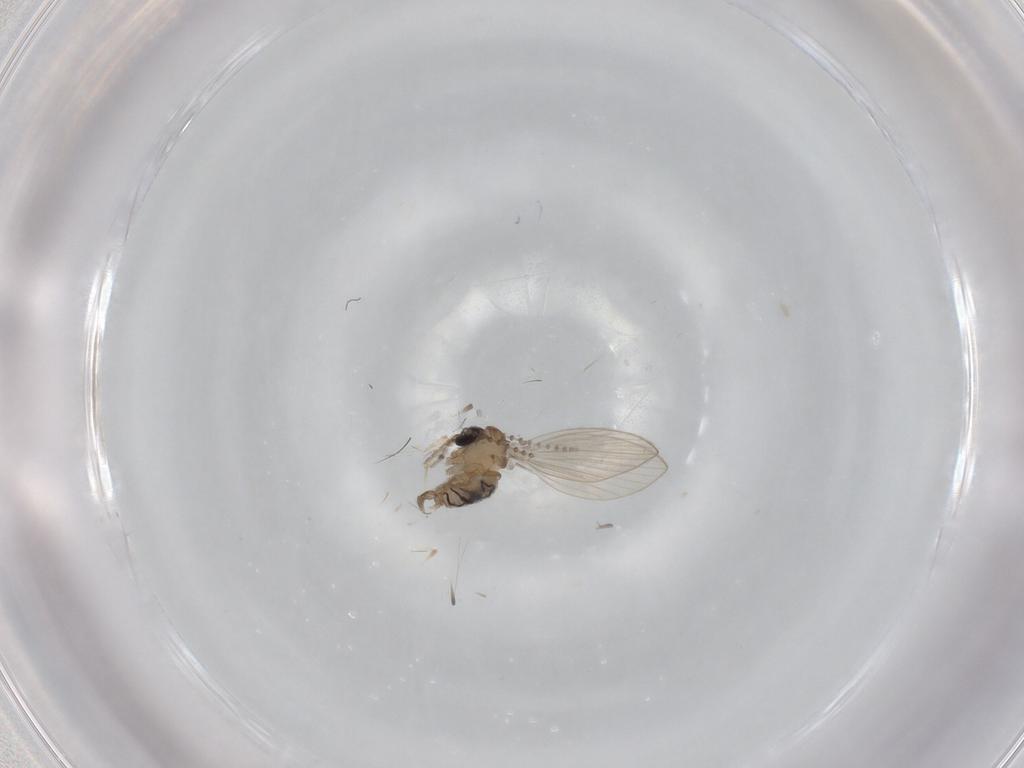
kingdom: Animalia
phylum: Arthropoda
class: Insecta
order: Diptera
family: Psychodidae
